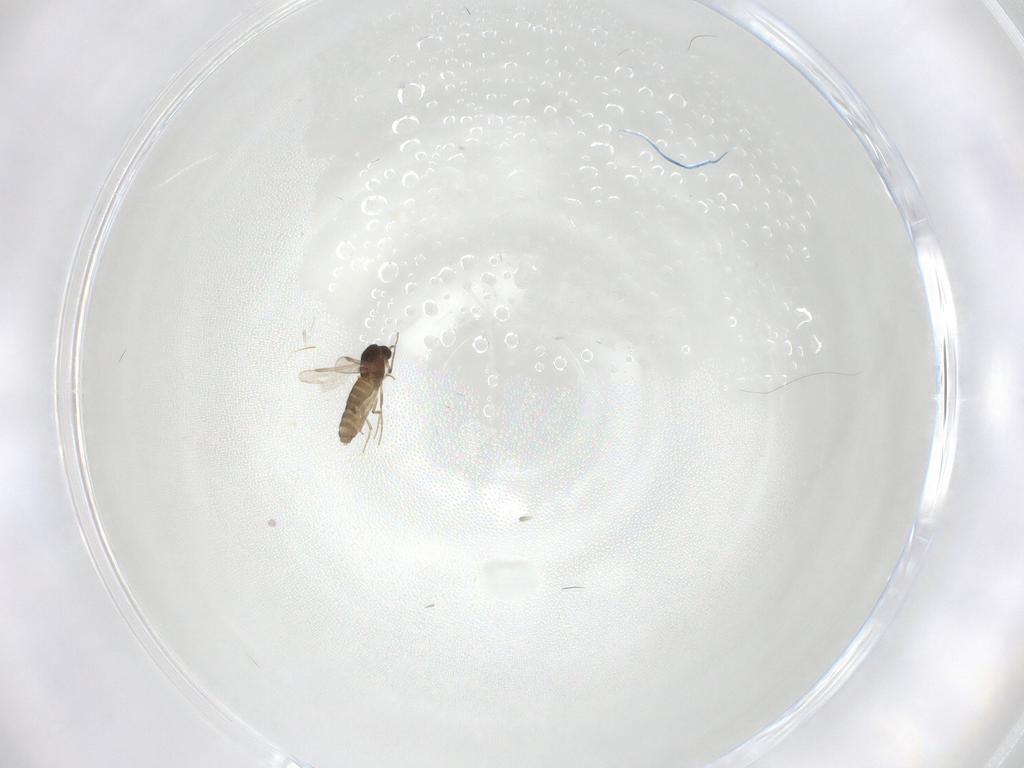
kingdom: Animalia
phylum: Arthropoda
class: Insecta
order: Diptera
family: Chironomidae
